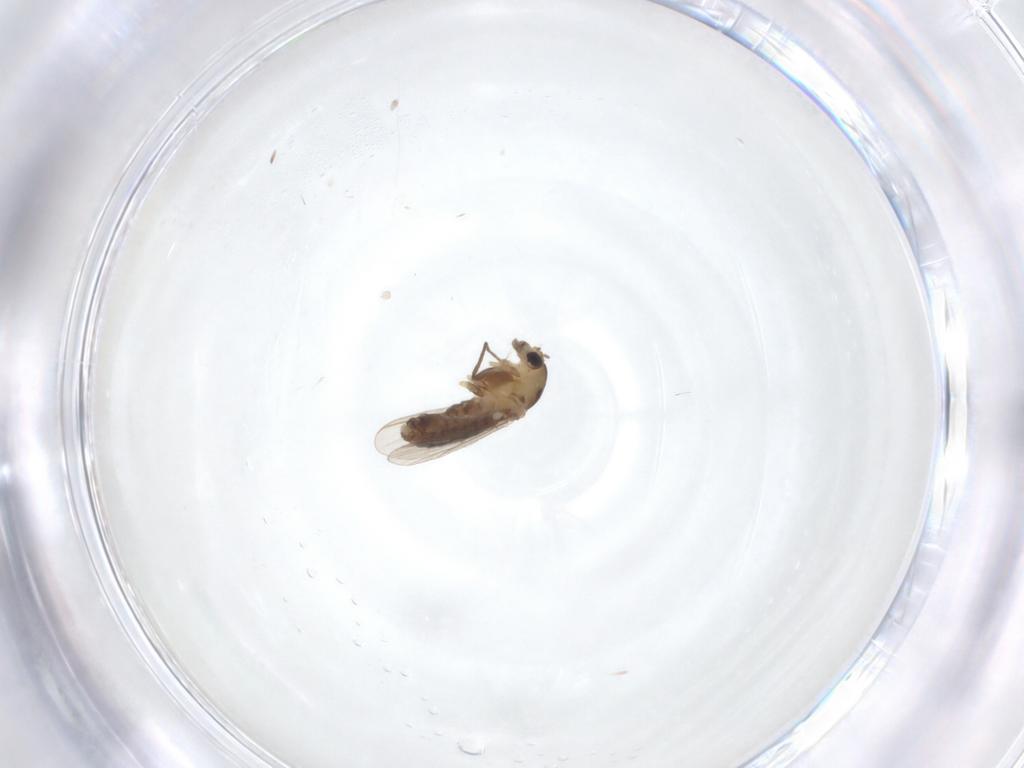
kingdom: Animalia
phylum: Arthropoda
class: Insecta
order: Diptera
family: Chironomidae
